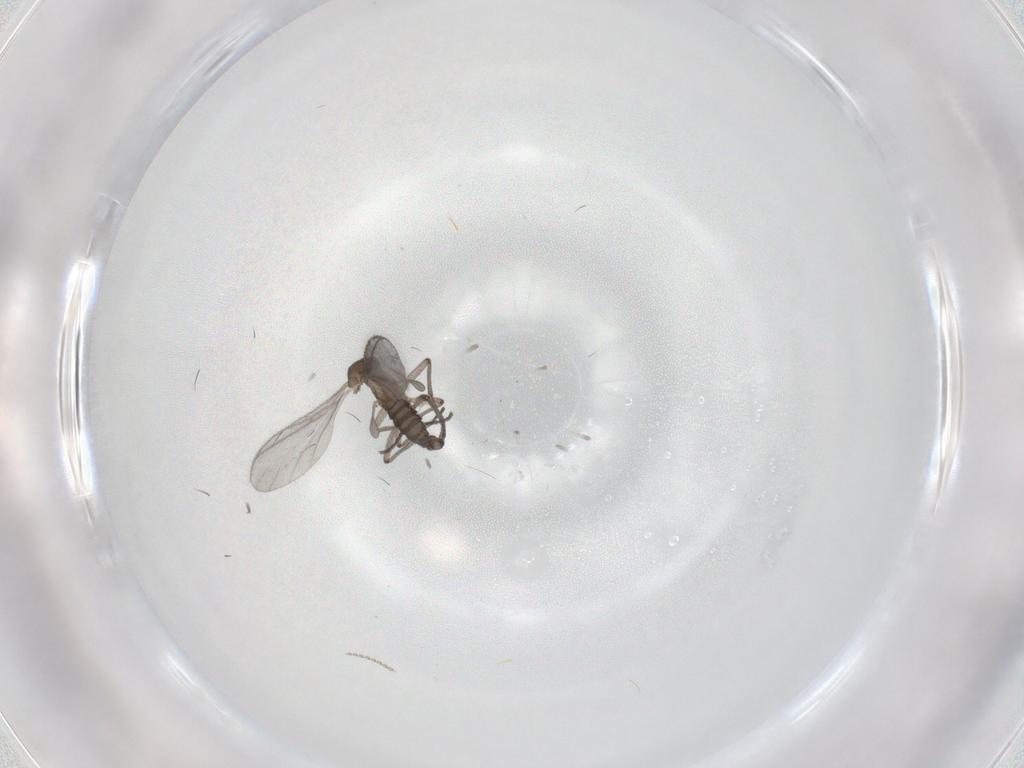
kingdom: Animalia
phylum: Arthropoda
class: Insecta
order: Diptera
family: Sciaridae
